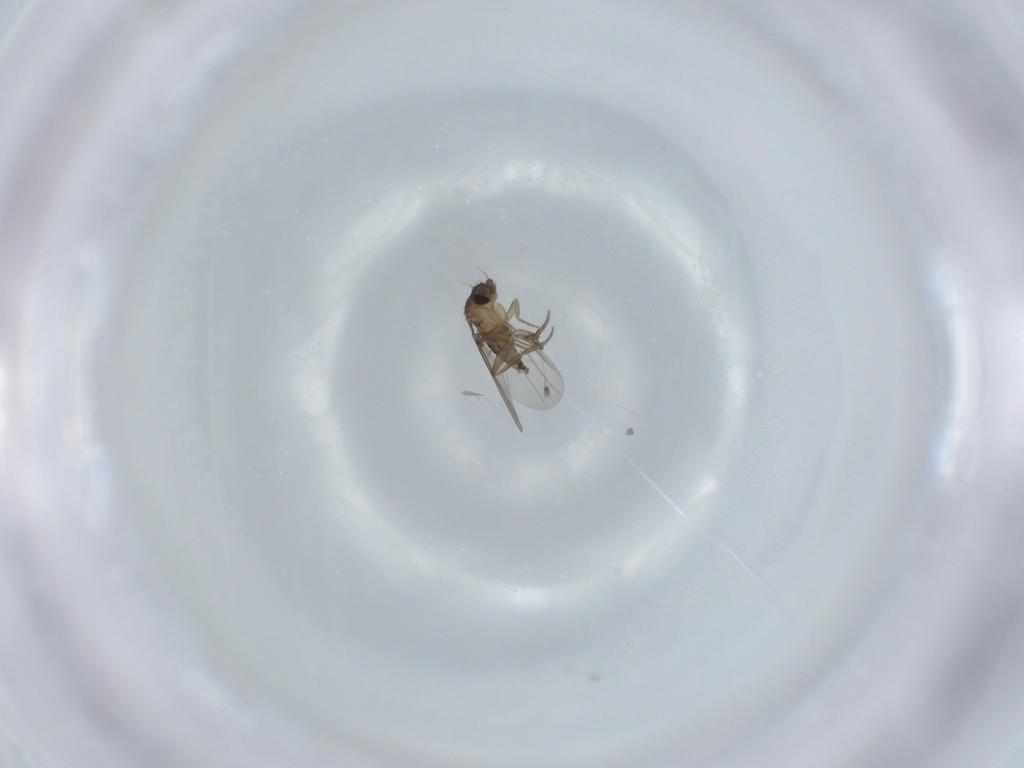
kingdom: Animalia
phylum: Arthropoda
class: Insecta
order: Diptera
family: Phoridae
